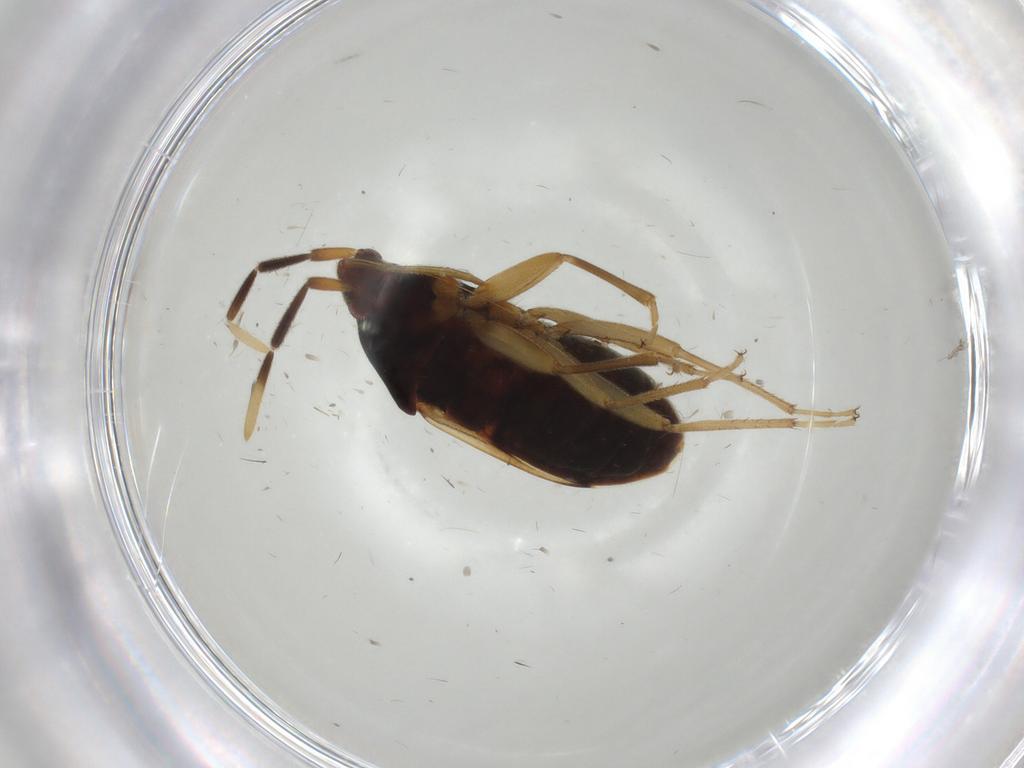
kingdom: Animalia
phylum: Arthropoda
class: Insecta
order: Hemiptera
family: Rhyparochromidae
